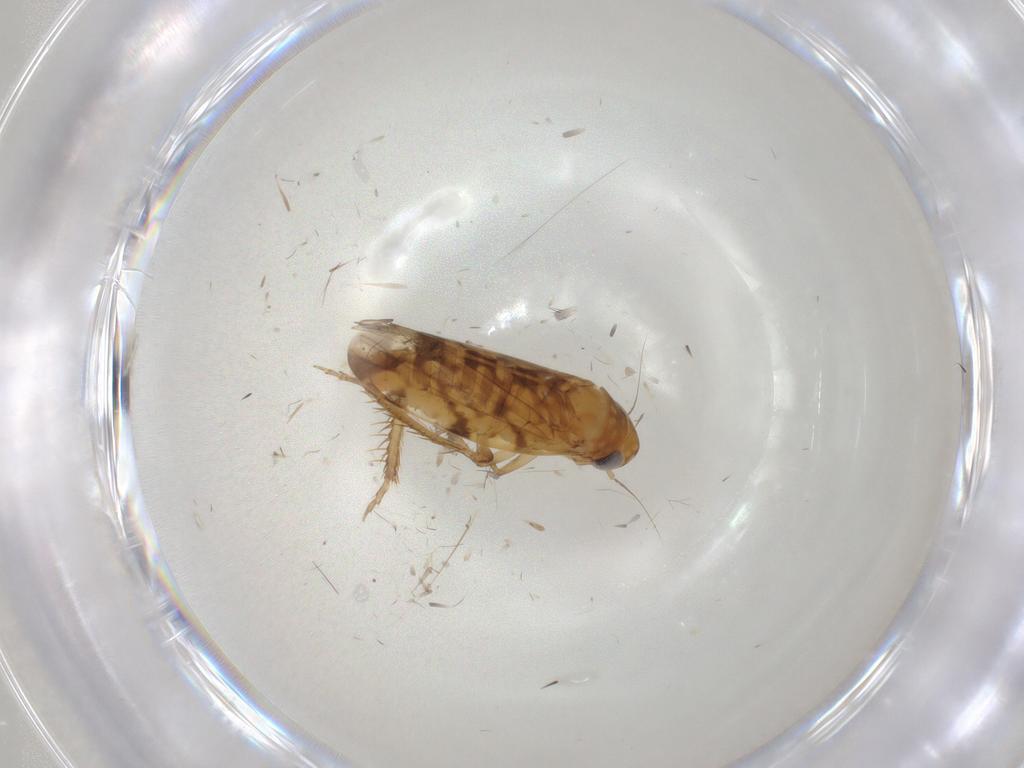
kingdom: Animalia
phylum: Arthropoda
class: Insecta
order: Hemiptera
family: Cicadellidae
